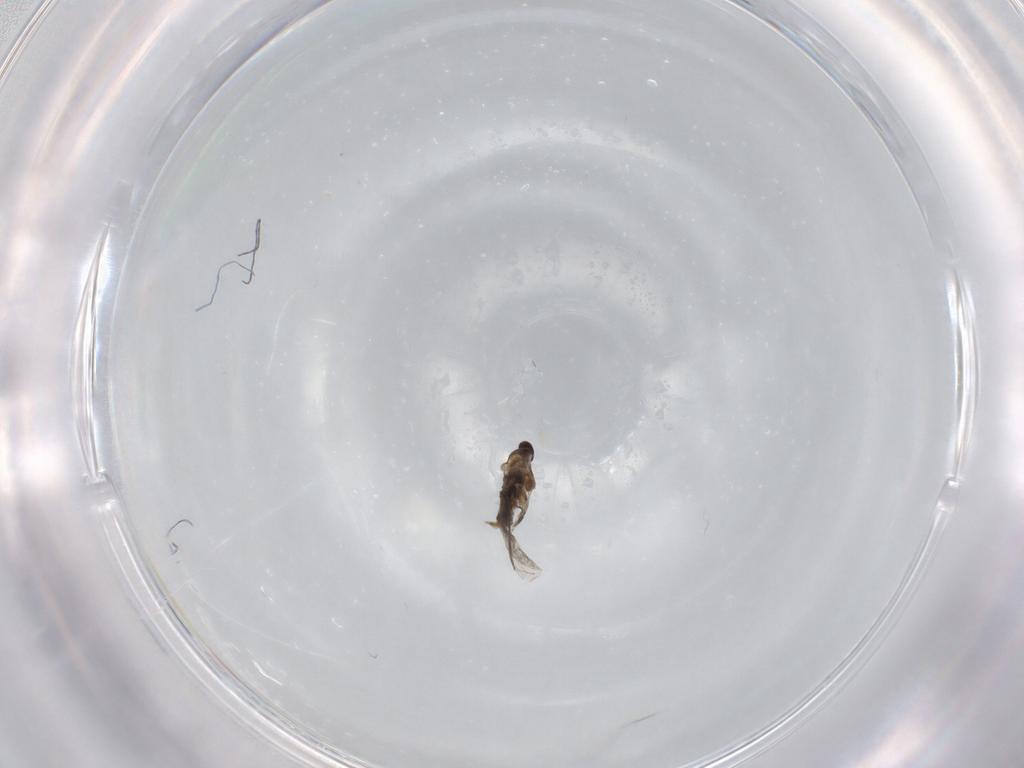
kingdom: Animalia
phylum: Arthropoda
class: Insecta
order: Diptera
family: Cecidomyiidae
